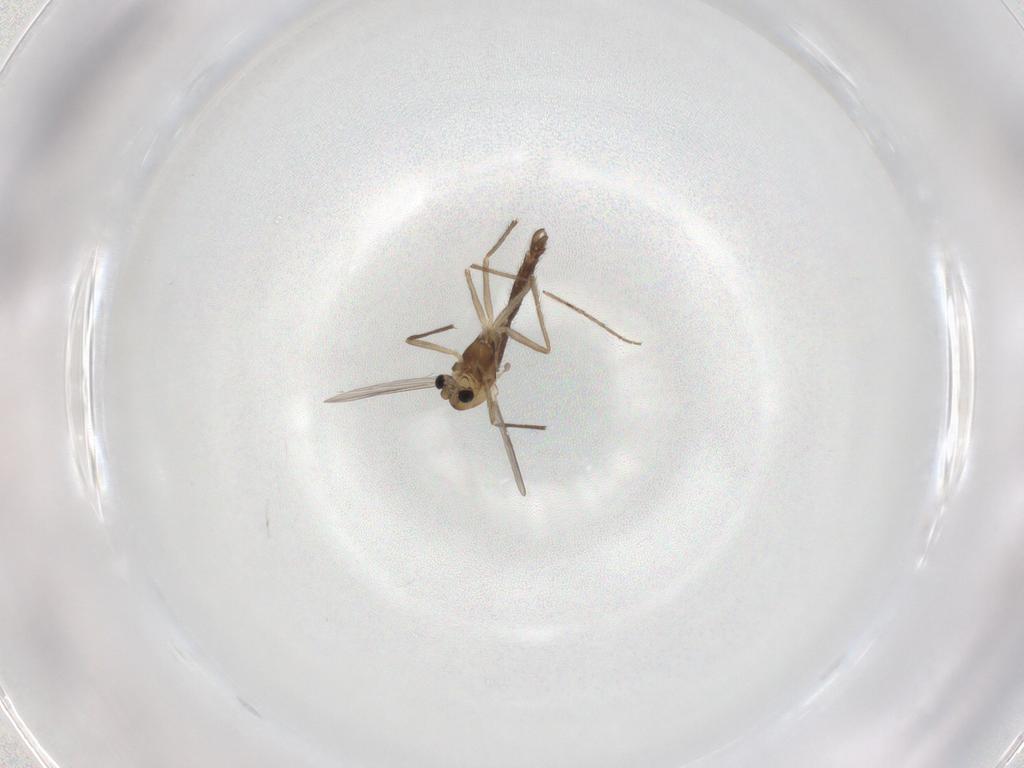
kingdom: Animalia
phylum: Arthropoda
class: Insecta
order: Diptera
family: Chironomidae
